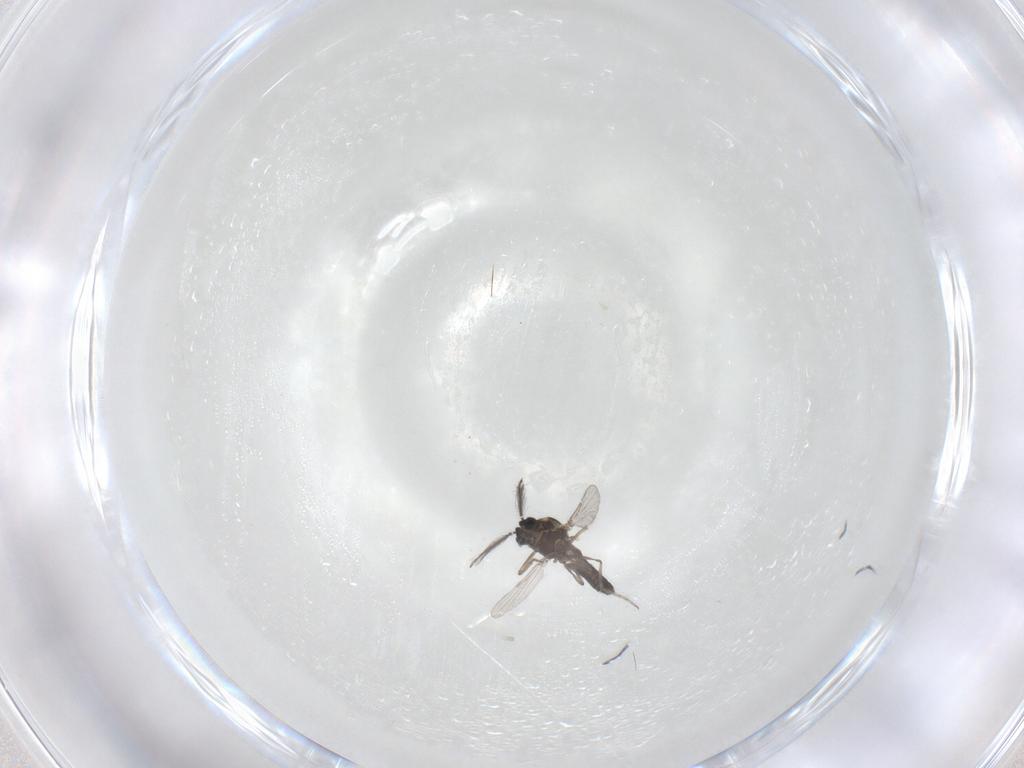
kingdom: Animalia
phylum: Arthropoda
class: Insecta
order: Diptera
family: Ceratopogonidae
